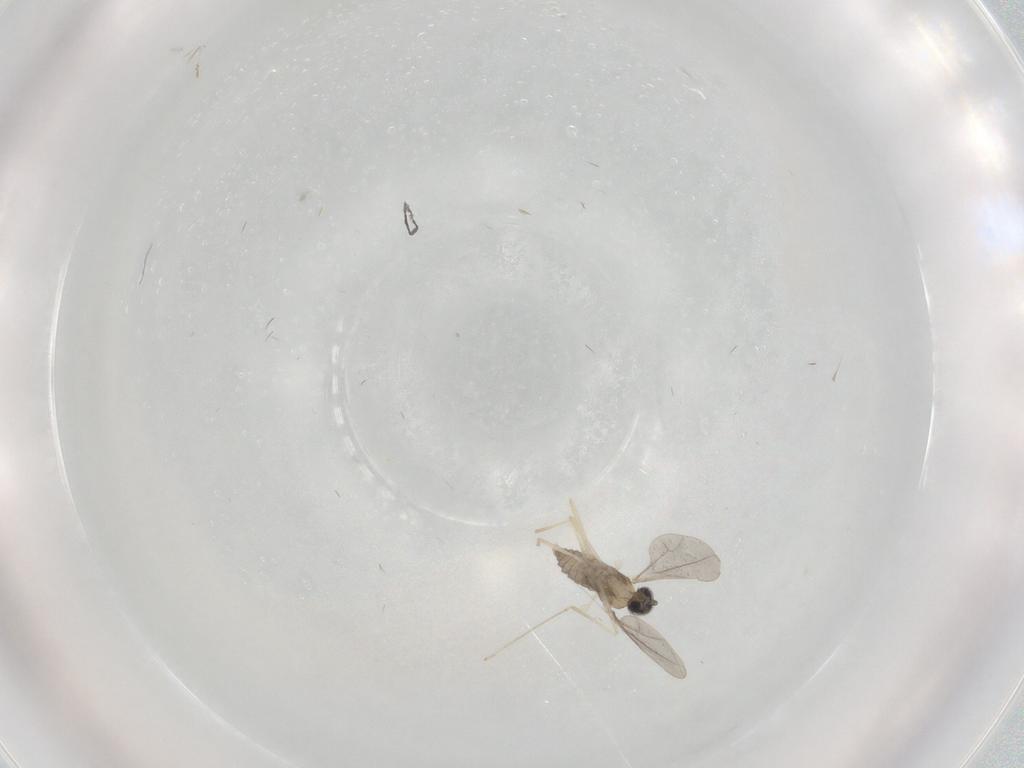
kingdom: Animalia
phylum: Arthropoda
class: Insecta
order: Diptera
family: Cecidomyiidae
